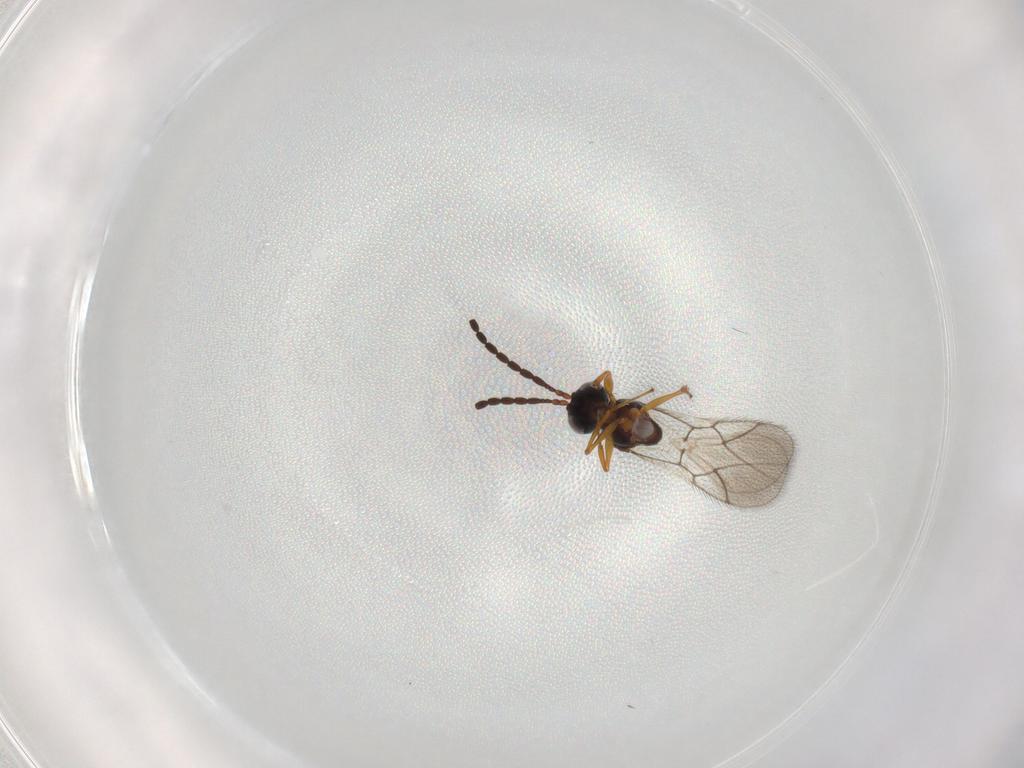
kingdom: Animalia
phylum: Arthropoda
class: Insecta
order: Hymenoptera
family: Figitidae
